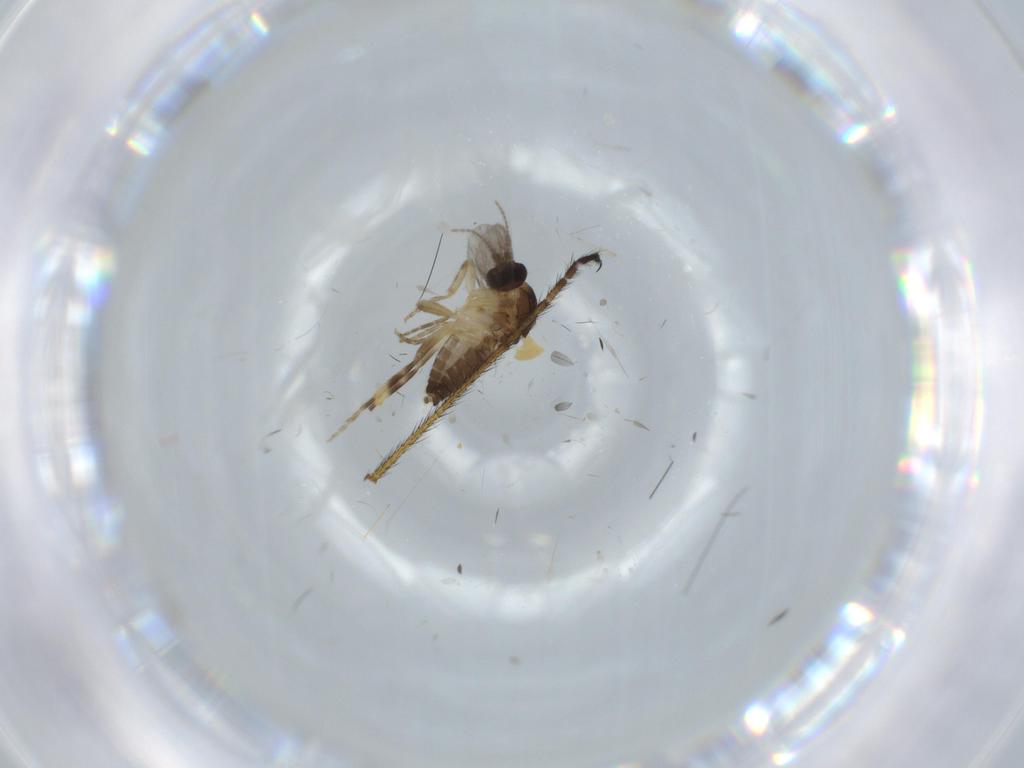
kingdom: Animalia
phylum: Arthropoda
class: Insecta
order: Diptera
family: Ceratopogonidae
